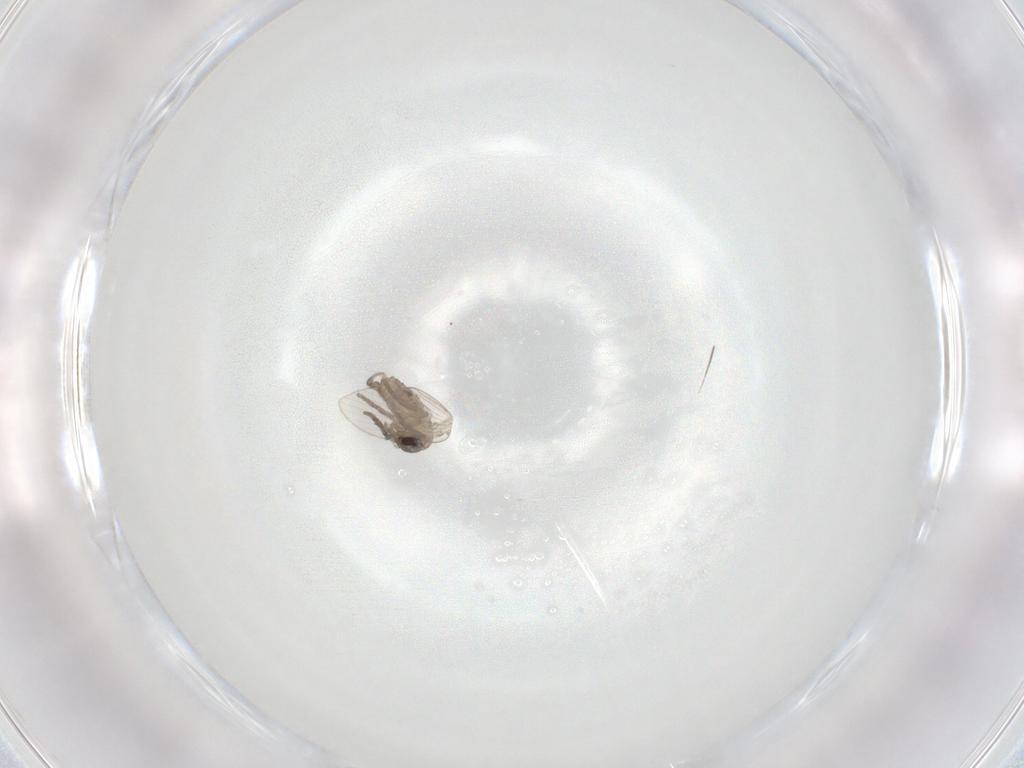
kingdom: Animalia
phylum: Arthropoda
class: Insecta
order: Diptera
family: Psychodidae
